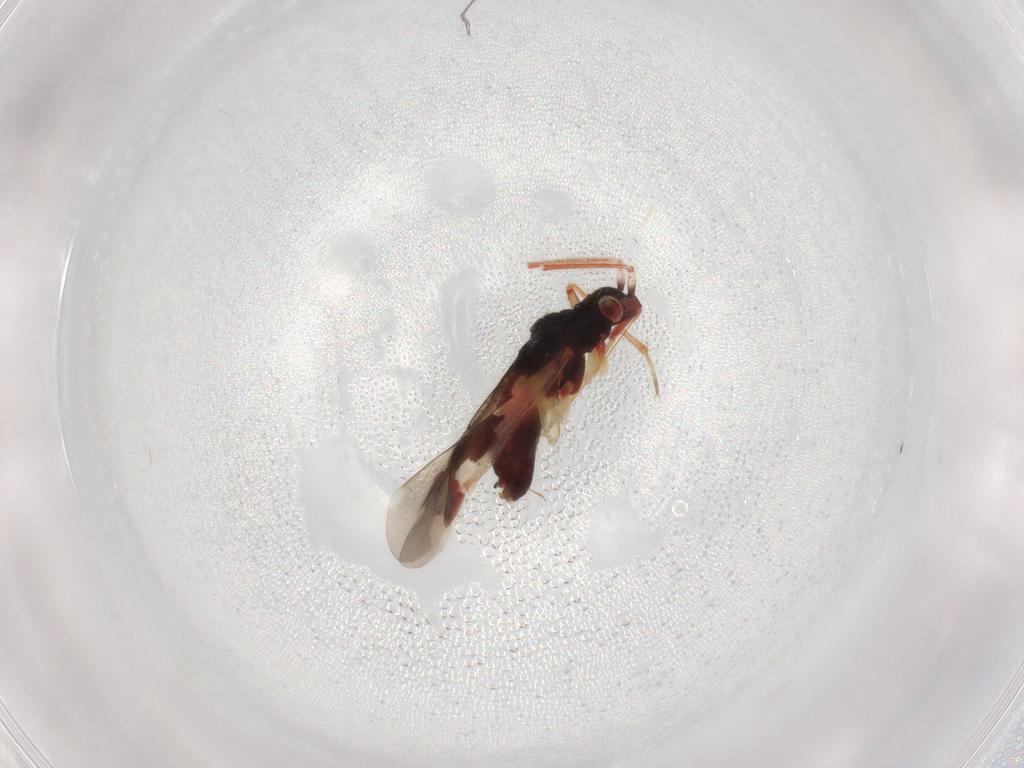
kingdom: Animalia
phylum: Arthropoda
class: Insecta
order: Hemiptera
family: Miridae
